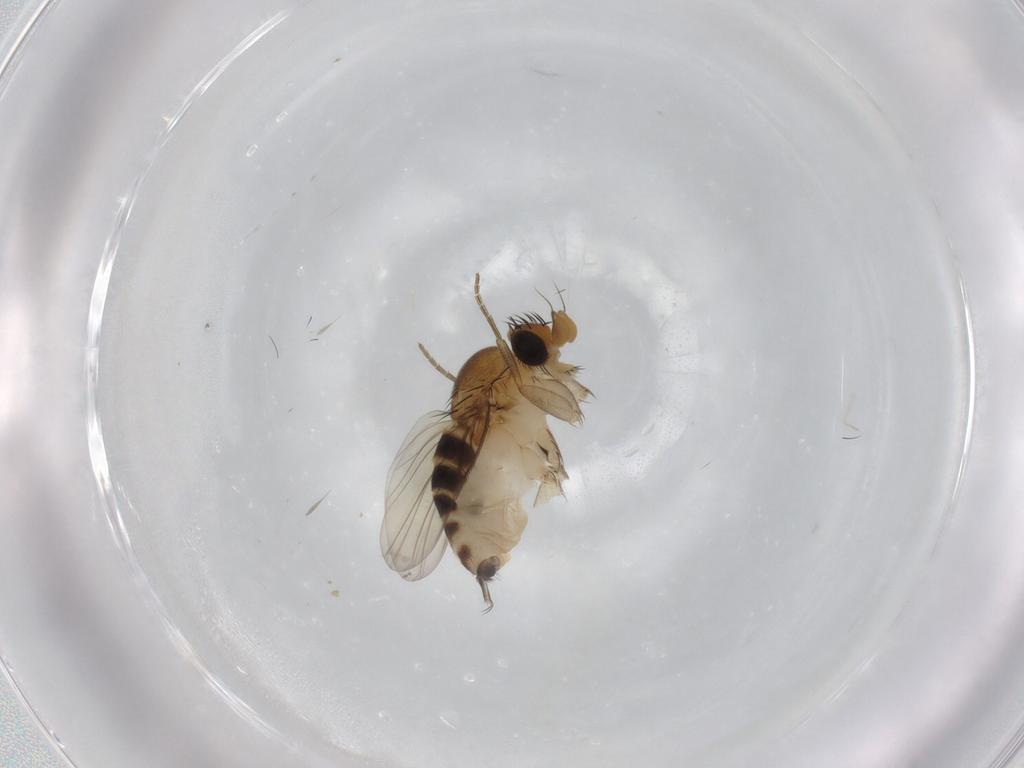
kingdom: Animalia
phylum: Arthropoda
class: Insecta
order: Diptera
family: Phoridae
